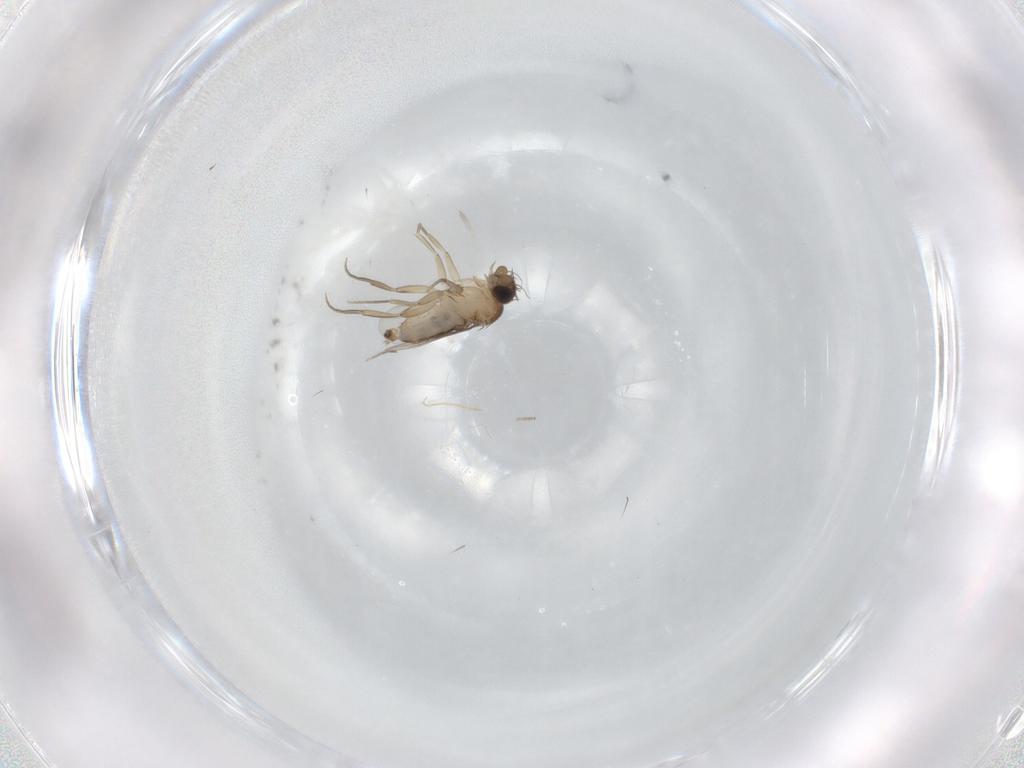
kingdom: Animalia
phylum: Arthropoda
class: Insecta
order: Diptera
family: Phoridae
